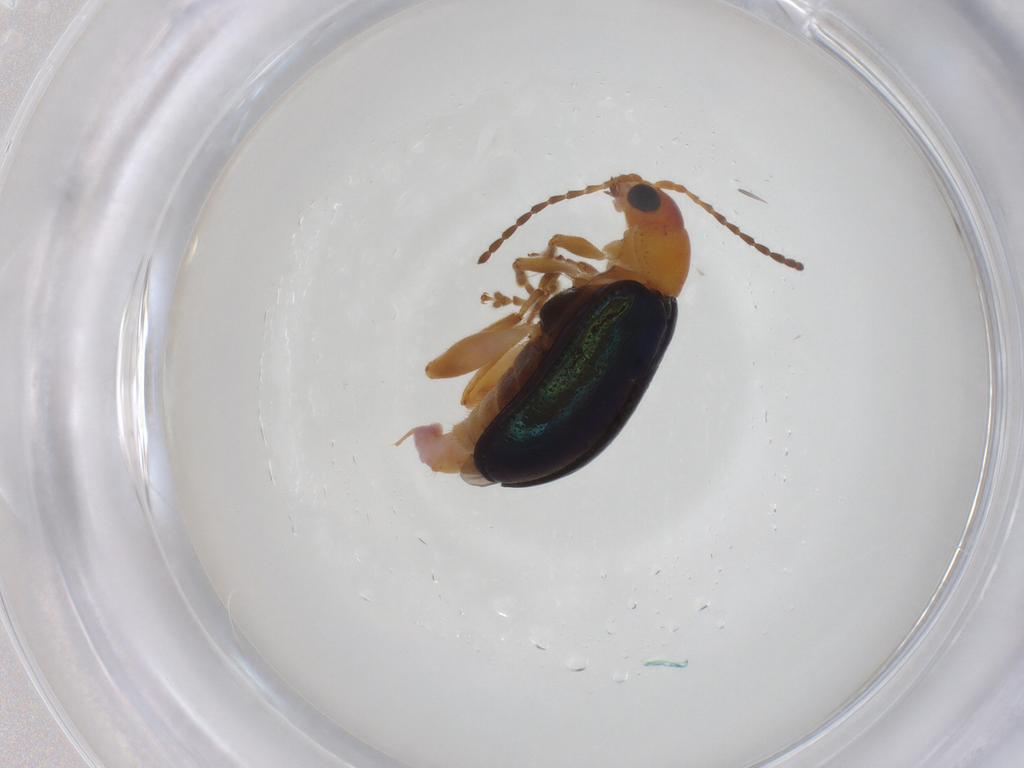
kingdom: Animalia
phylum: Arthropoda
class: Insecta
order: Coleoptera
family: Chrysomelidae
